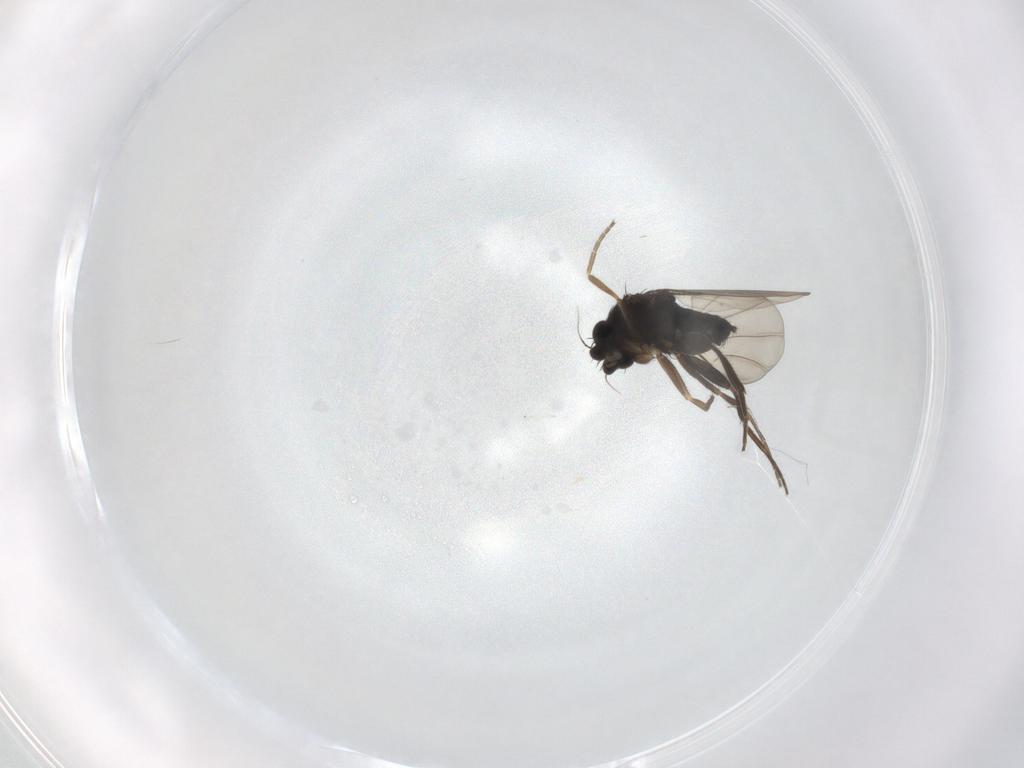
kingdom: Animalia
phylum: Arthropoda
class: Insecta
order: Diptera
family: Phoridae
